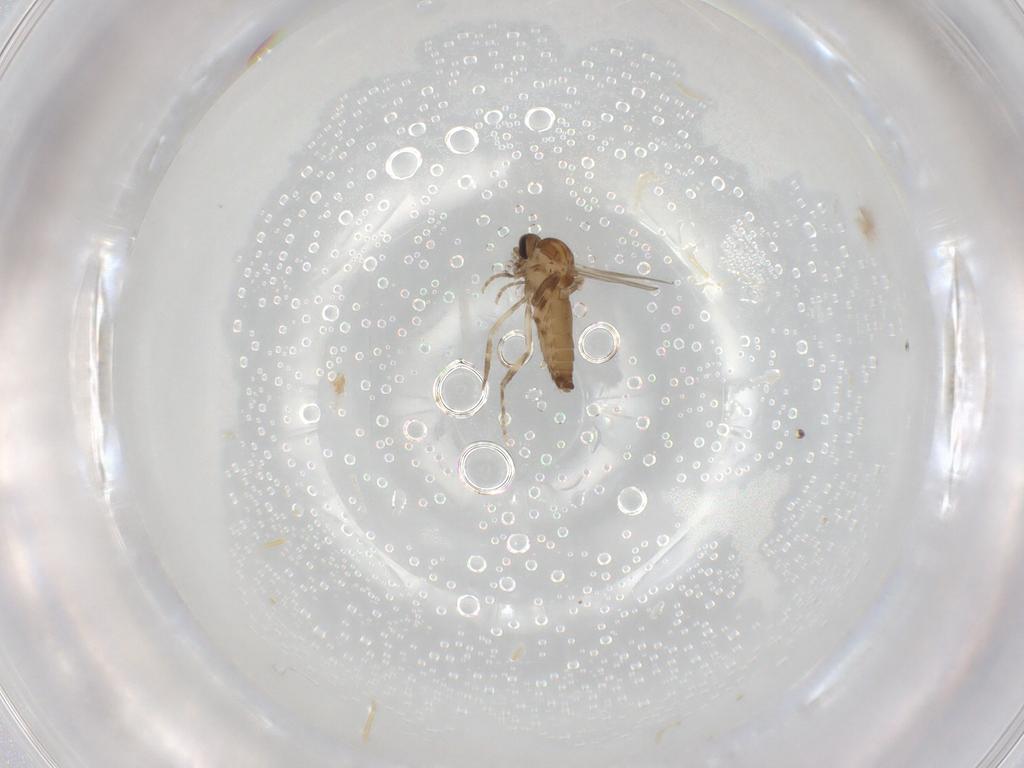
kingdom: Animalia
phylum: Arthropoda
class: Insecta
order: Diptera
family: Ceratopogonidae
